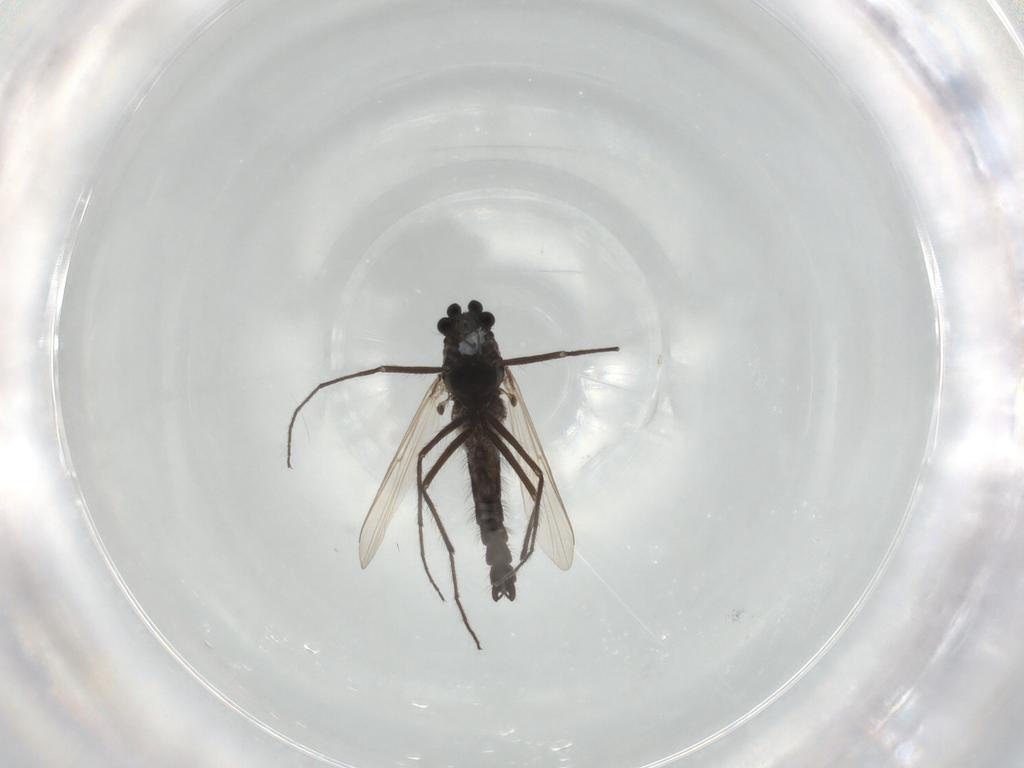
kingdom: Animalia
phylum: Arthropoda
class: Insecta
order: Diptera
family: Muscidae
